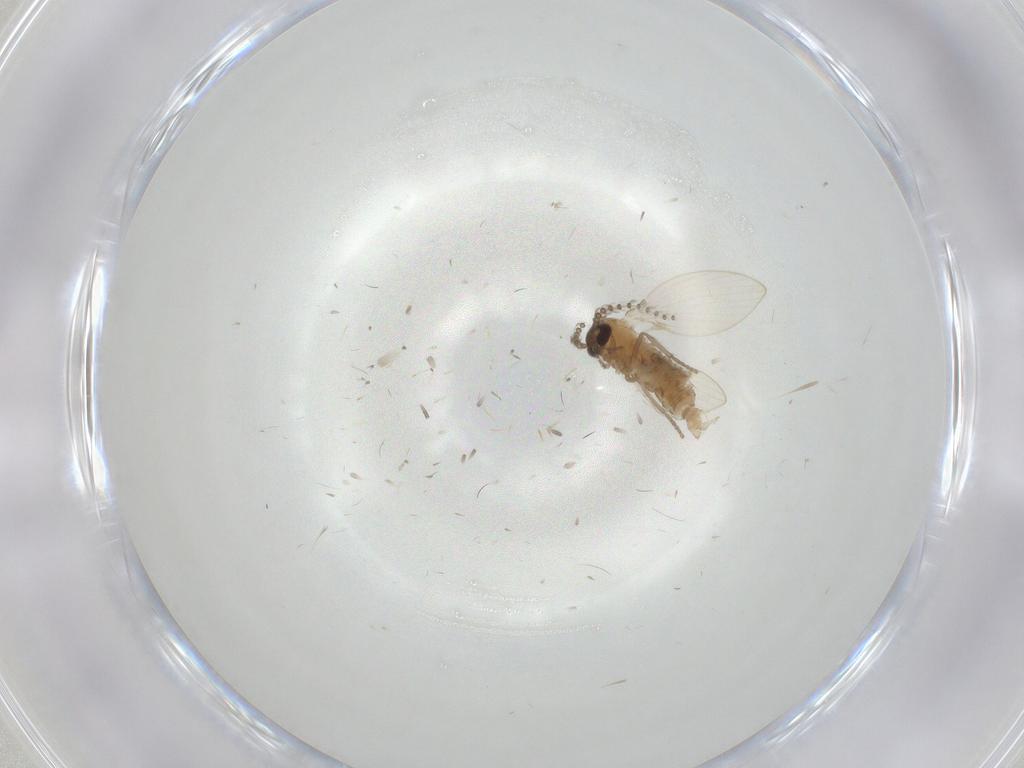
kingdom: Animalia
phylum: Arthropoda
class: Insecta
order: Diptera
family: Psychodidae
